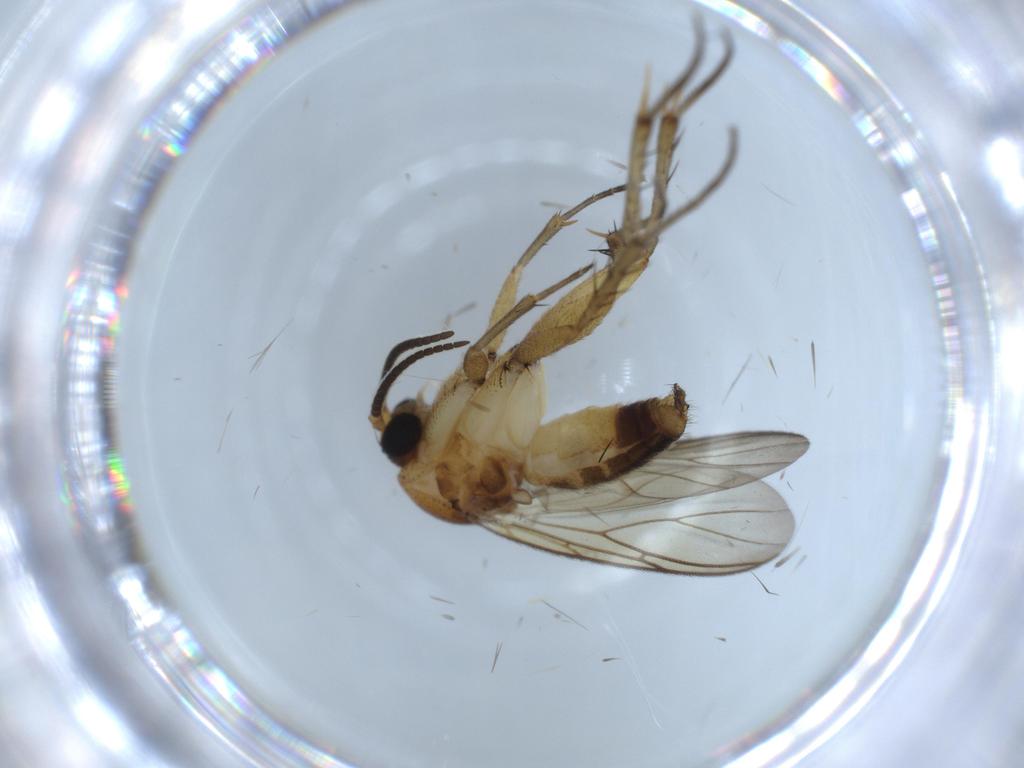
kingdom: Animalia
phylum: Arthropoda
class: Insecta
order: Diptera
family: Mycetophilidae
